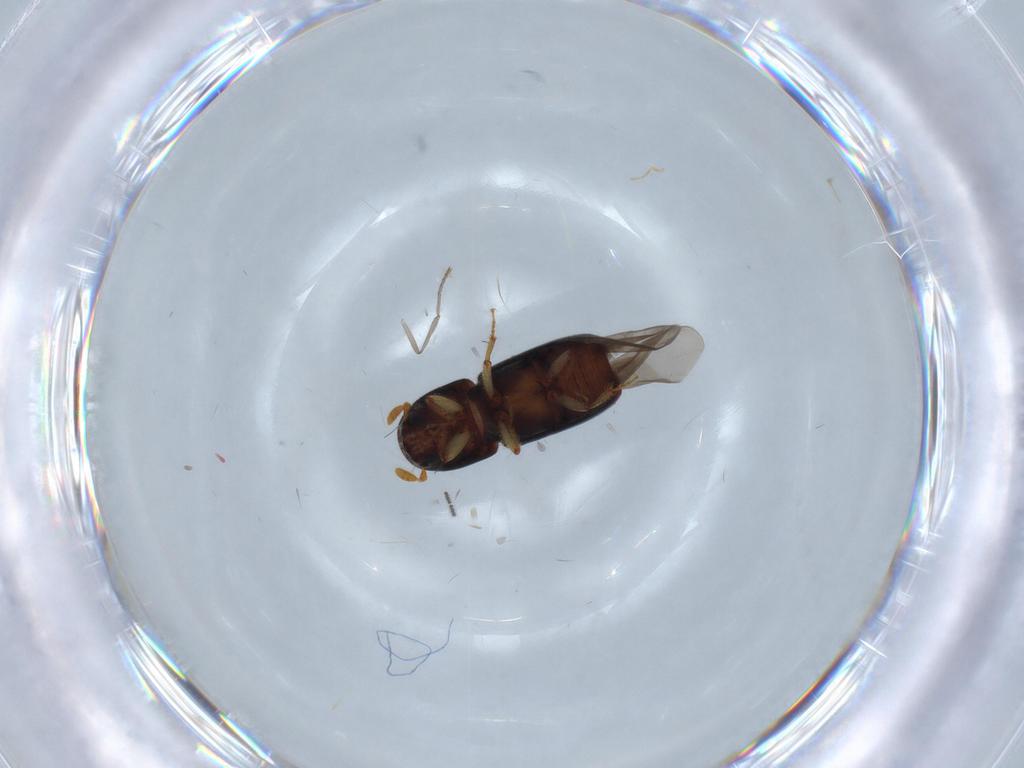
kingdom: Animalia
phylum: Arthropoda
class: Insecta
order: Coleoptera
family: Curculionidae
